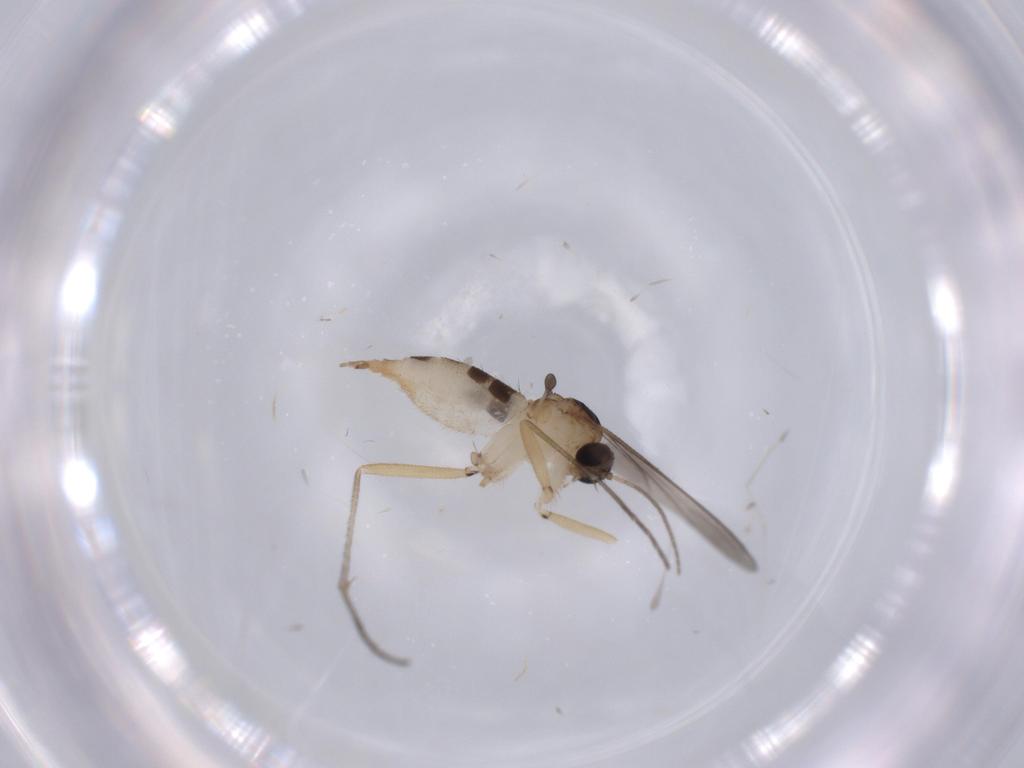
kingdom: Animalia
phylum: Arthropoda
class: Insecta
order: Diptera
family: Sciaridae
